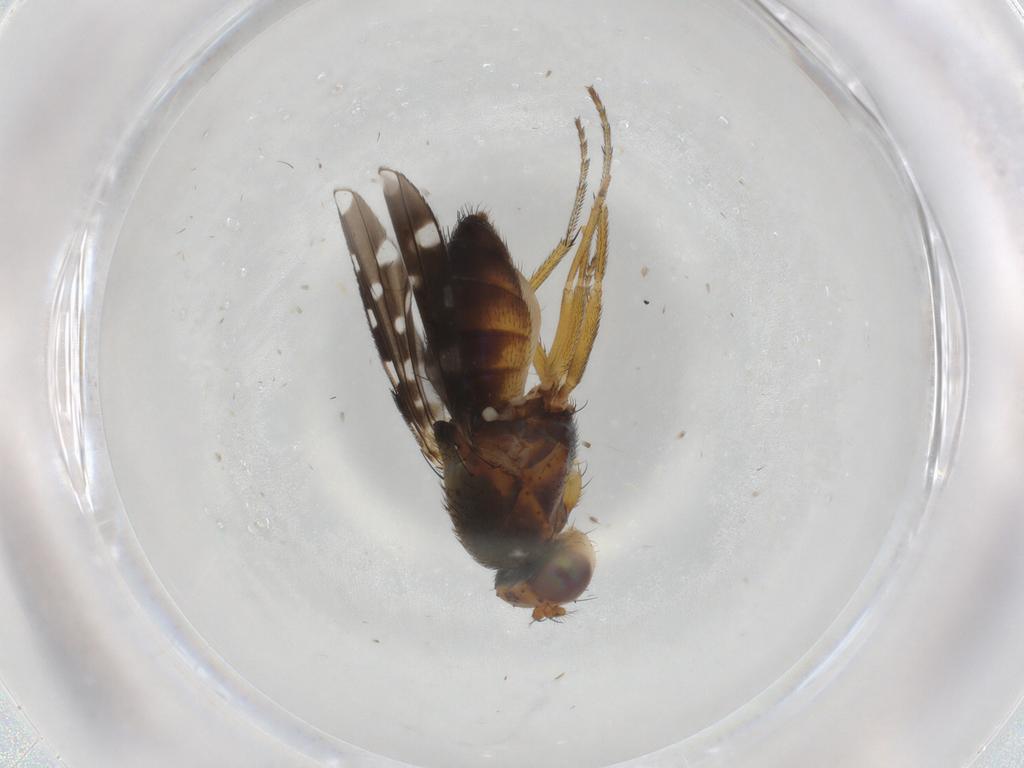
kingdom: Animalia
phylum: Arthropoda
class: Insecta
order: Diptera
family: Ephydridae
